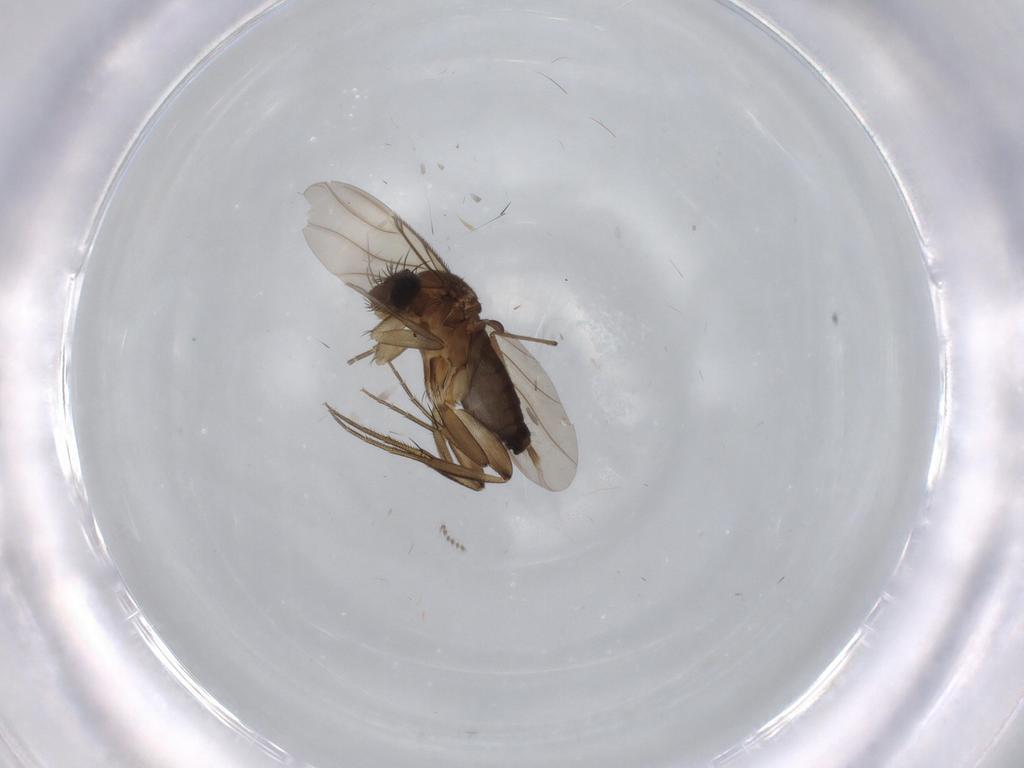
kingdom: Animalia
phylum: Arthropoda
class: Insecta
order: Diptera
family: Phoridae
